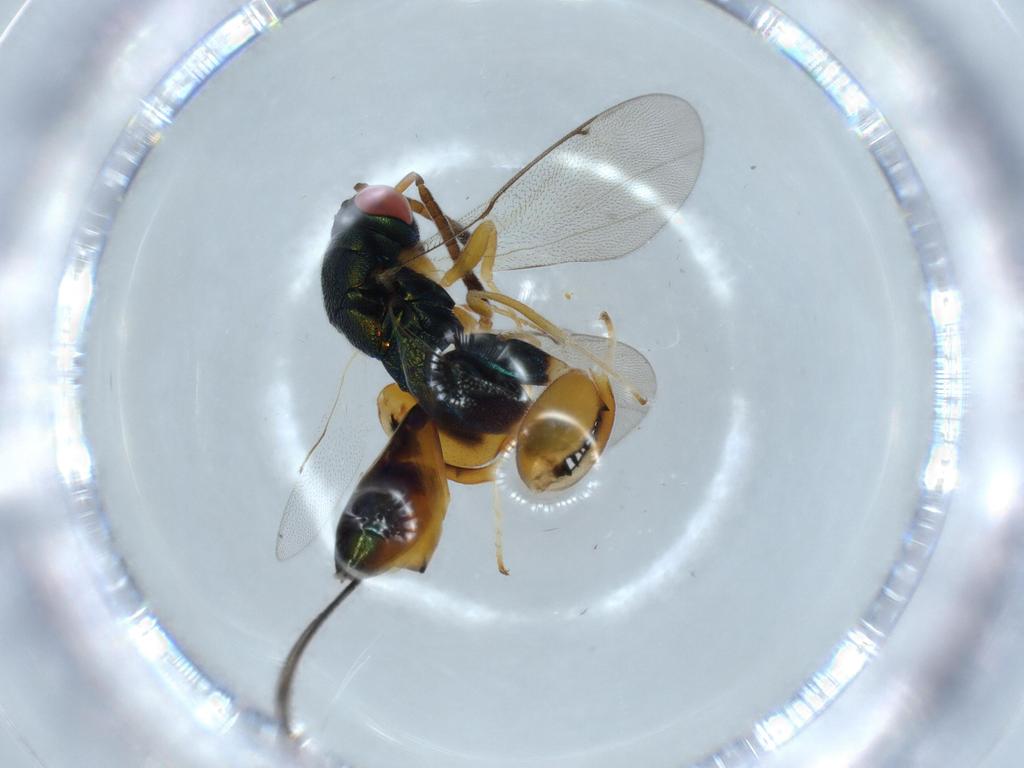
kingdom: Animalia
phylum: Arthropoda
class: Insecta
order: Hymenoptera
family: Torymidae
